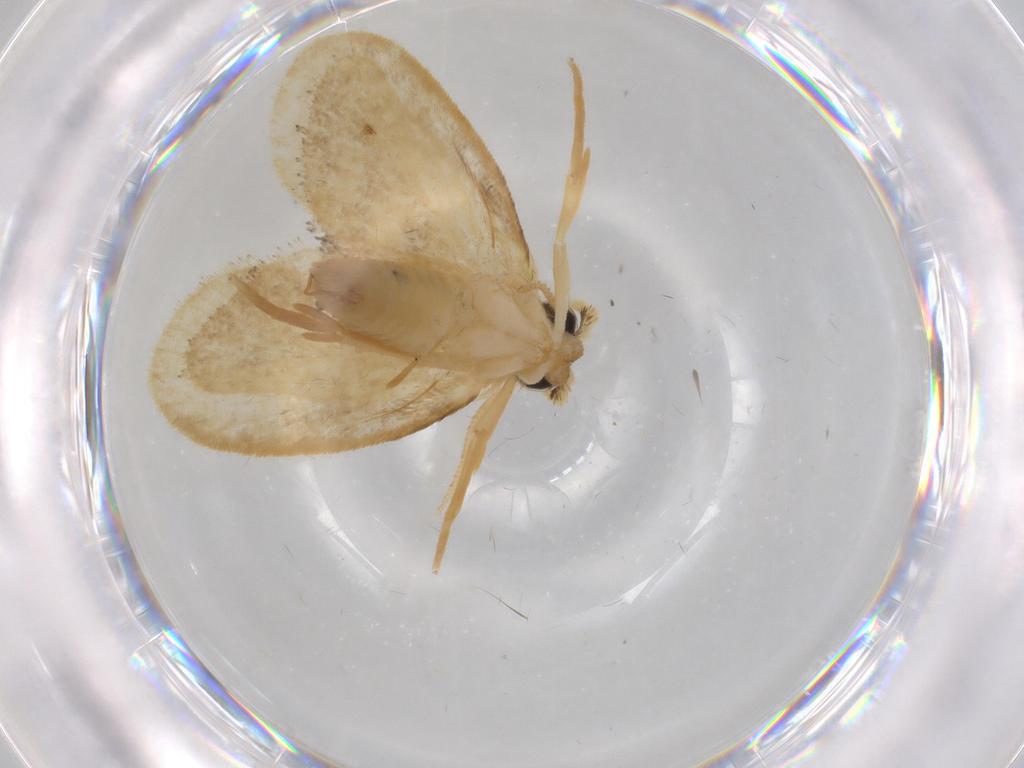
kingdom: Animalia
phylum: Arthropoda
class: Insecta
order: Lepidoptera
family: Psychidae
